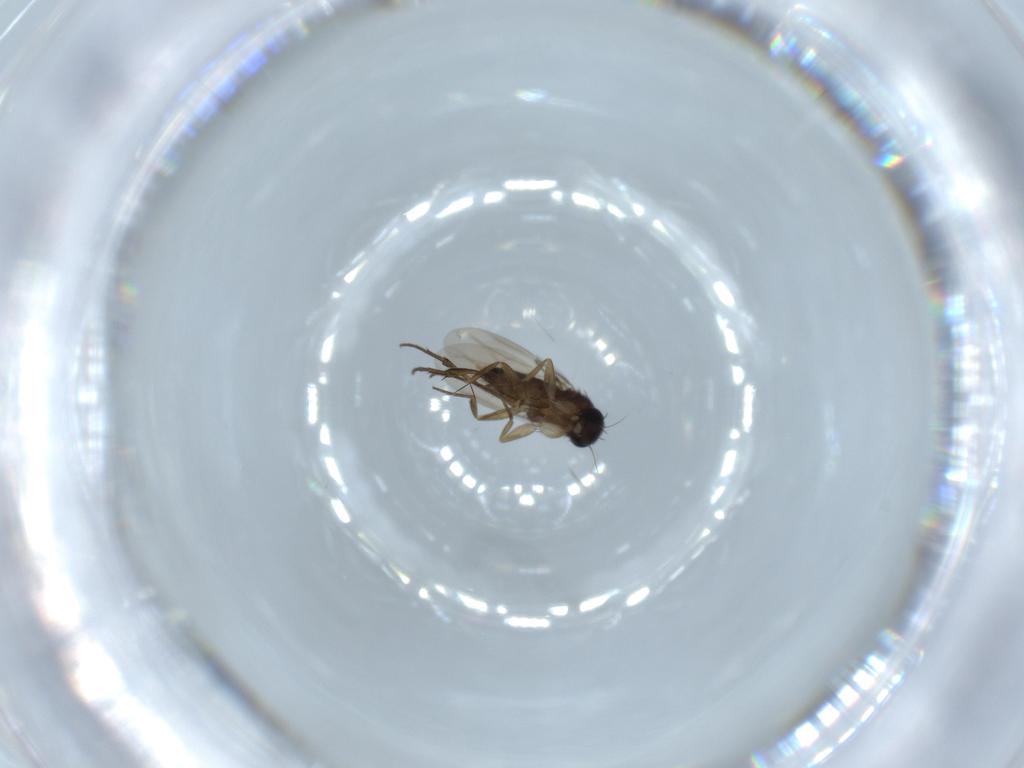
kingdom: Animalia
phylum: Arthropoda
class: Insecta
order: Diptera
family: Phoridae
